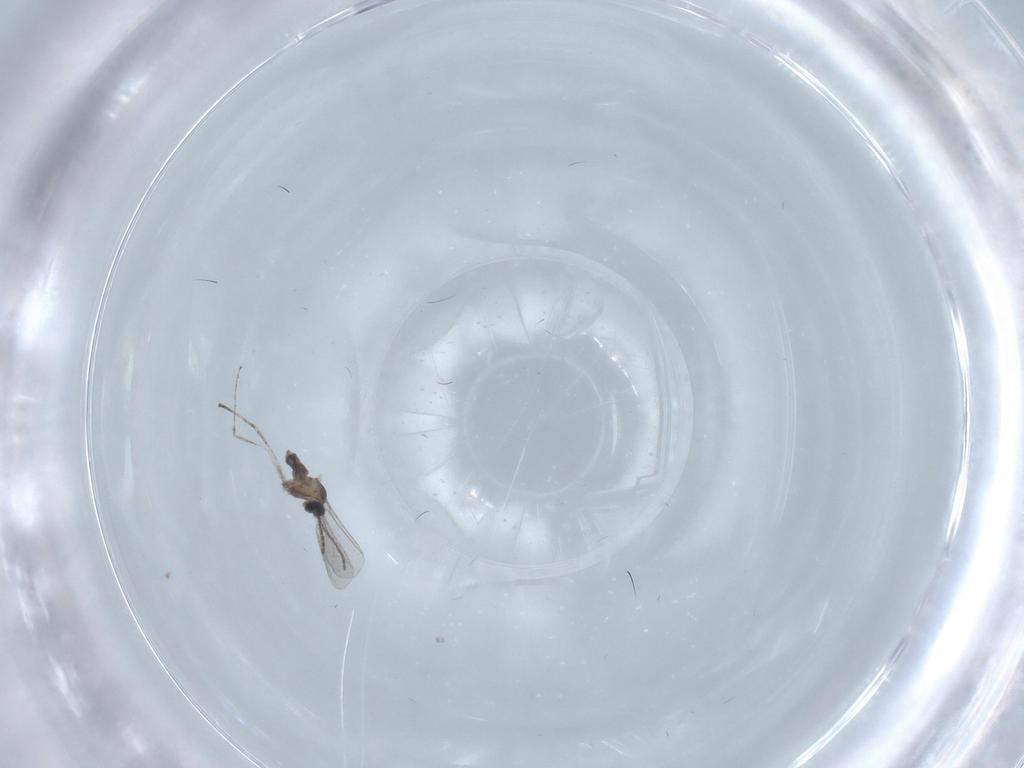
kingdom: Animalia
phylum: Arthropoda
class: Insecta
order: Diptera
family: Cecidomyiidae
